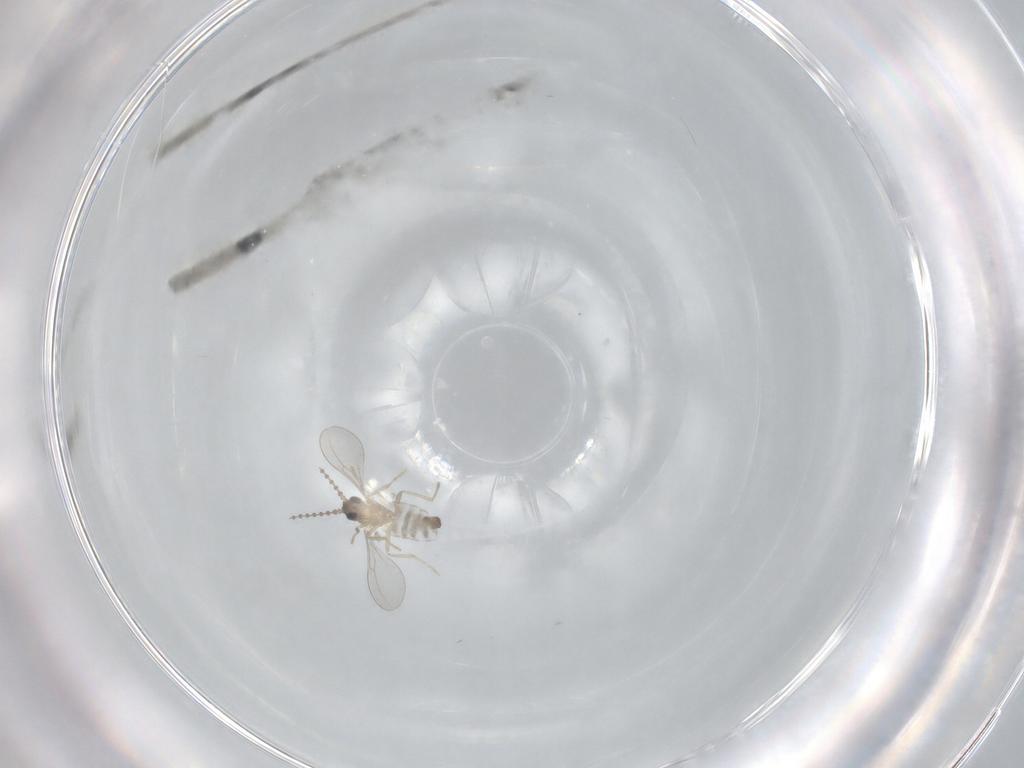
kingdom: Animalia
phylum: Arthropoda
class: Insecta
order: Diptera
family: Cecidomyiidae
